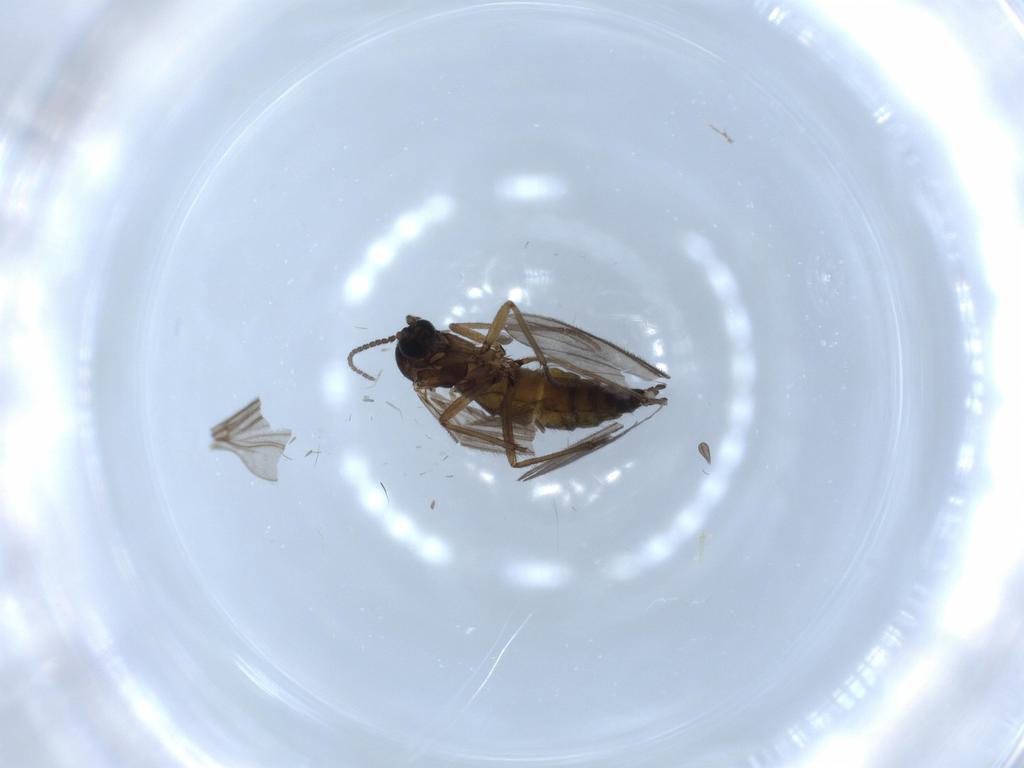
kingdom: Animalia
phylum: Arthropoda
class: Insecta
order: Diptera
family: Sciaridae
